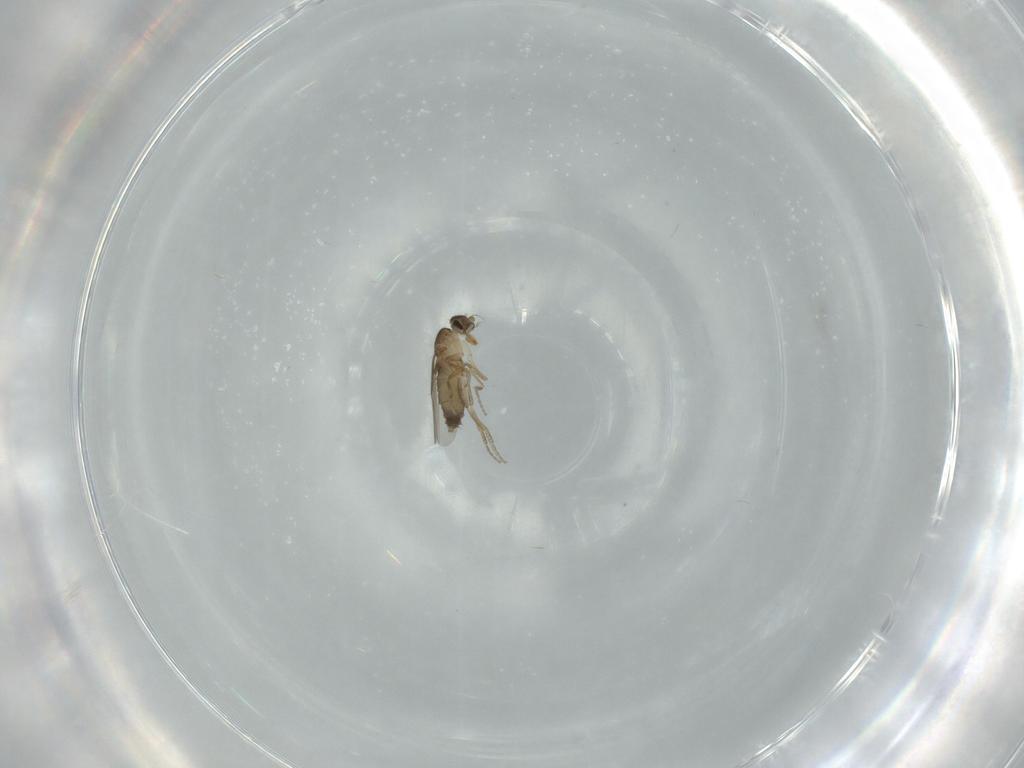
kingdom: Animalia
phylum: Arthropoda
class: Insecta
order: Diptera
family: Phoridae
